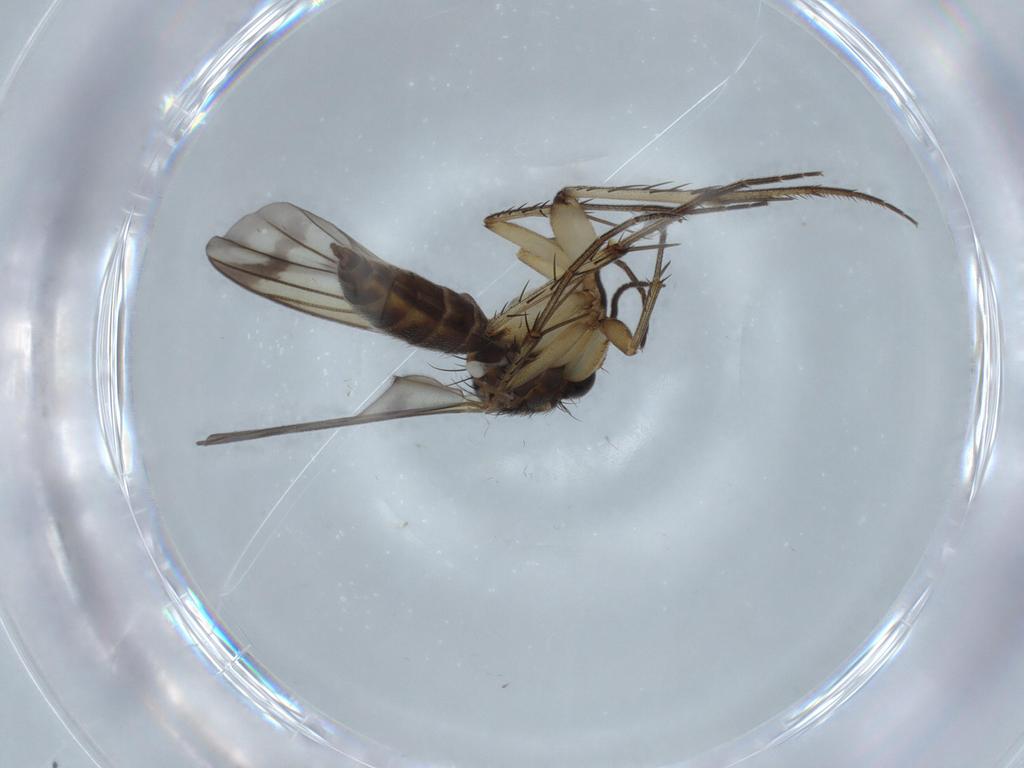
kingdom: Animalia
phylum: Arthropoda
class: Insecta
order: Diptera
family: Mycetophilidae
